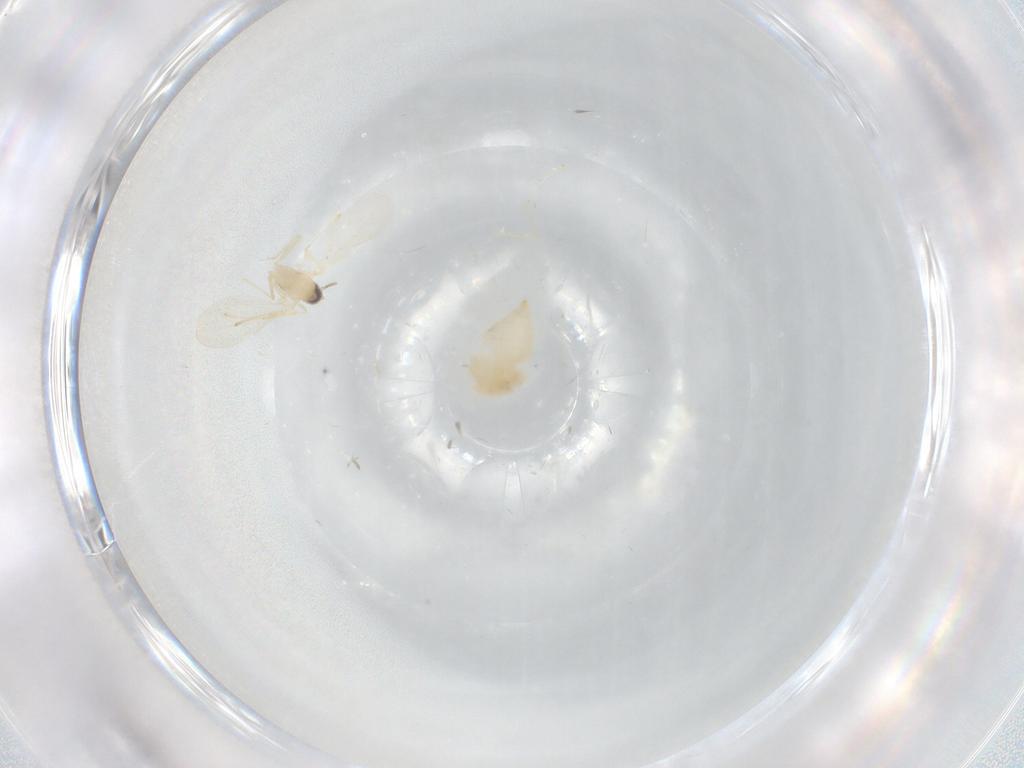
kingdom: Animalia
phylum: Arthropoda
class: Insecta
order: Diptera
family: Cecidomyiidae
